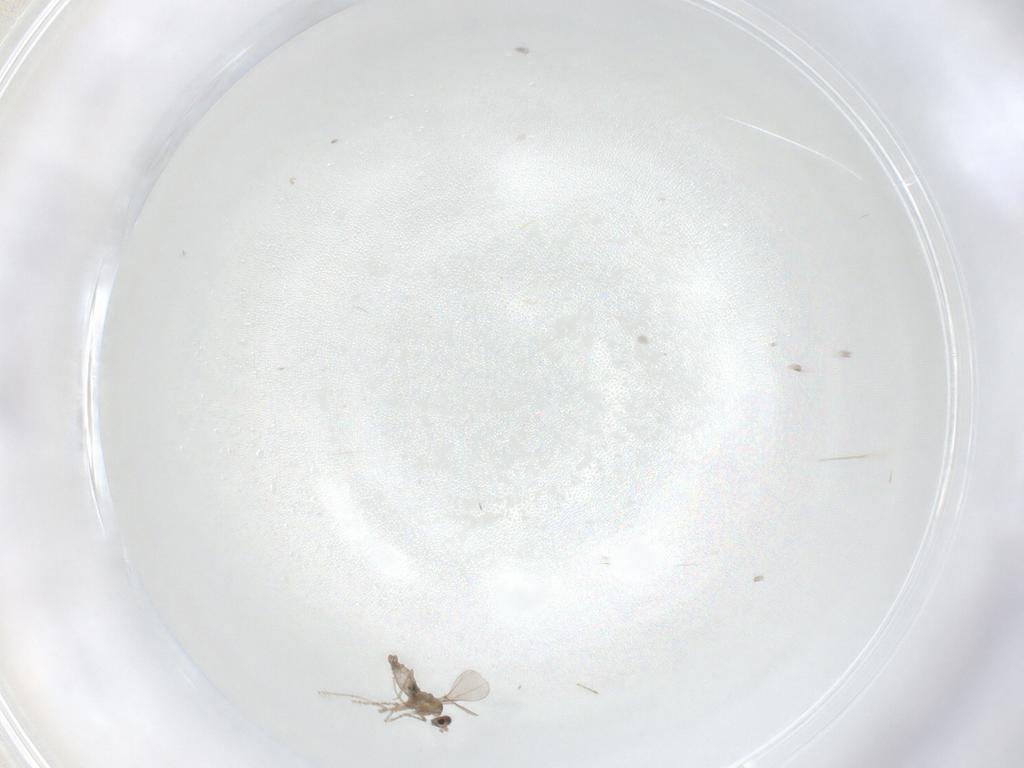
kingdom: Animalia
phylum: Arthropoda
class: Insecta
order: Diptera
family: Cecidomyiidae
